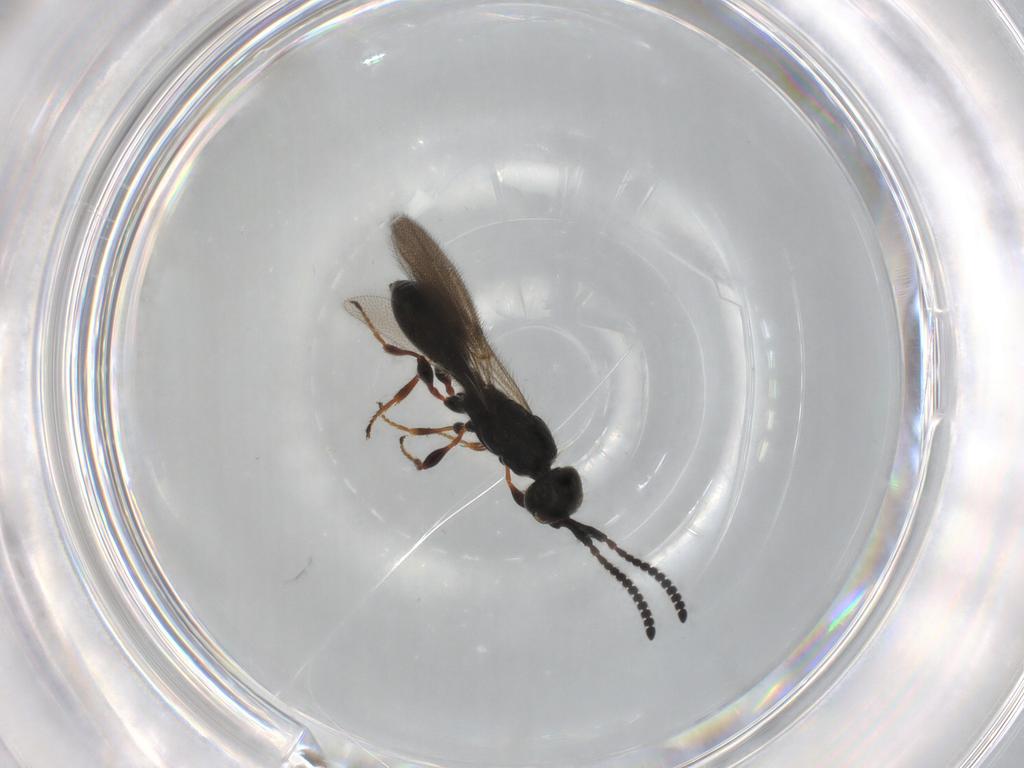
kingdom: Animalia
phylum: Arthropoda
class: Insecta
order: Hymenoptera
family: Diapriidae
